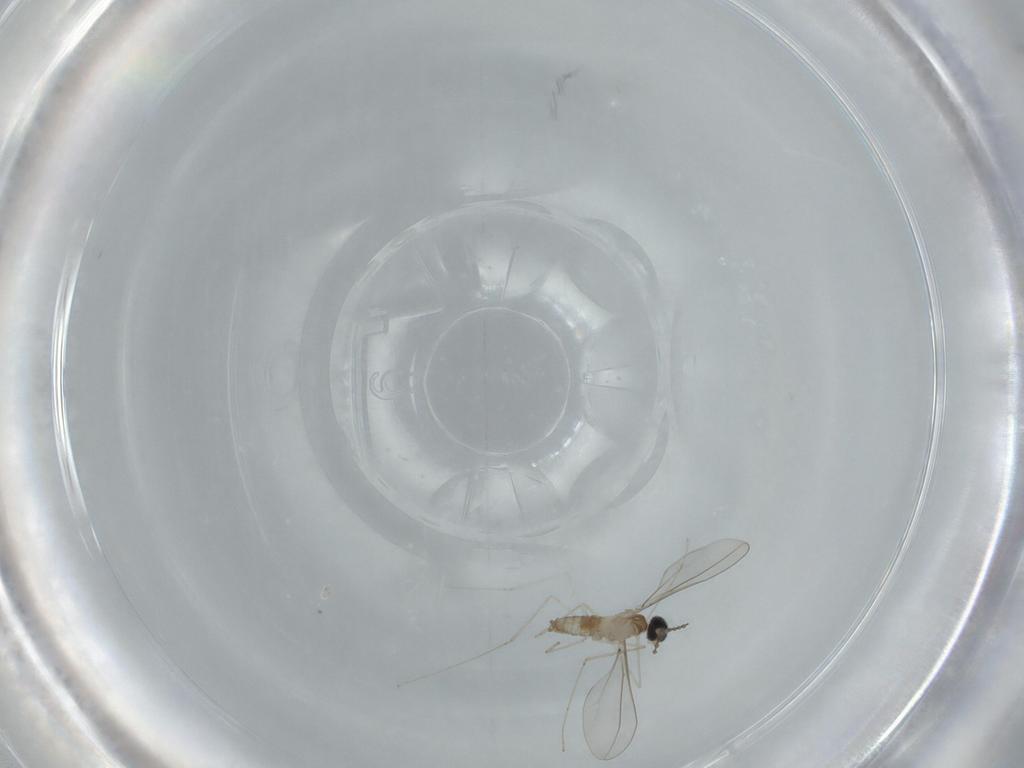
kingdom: Animalia
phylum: Arthropoda
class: Insecta
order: Diptera
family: Cecidomyiidae
